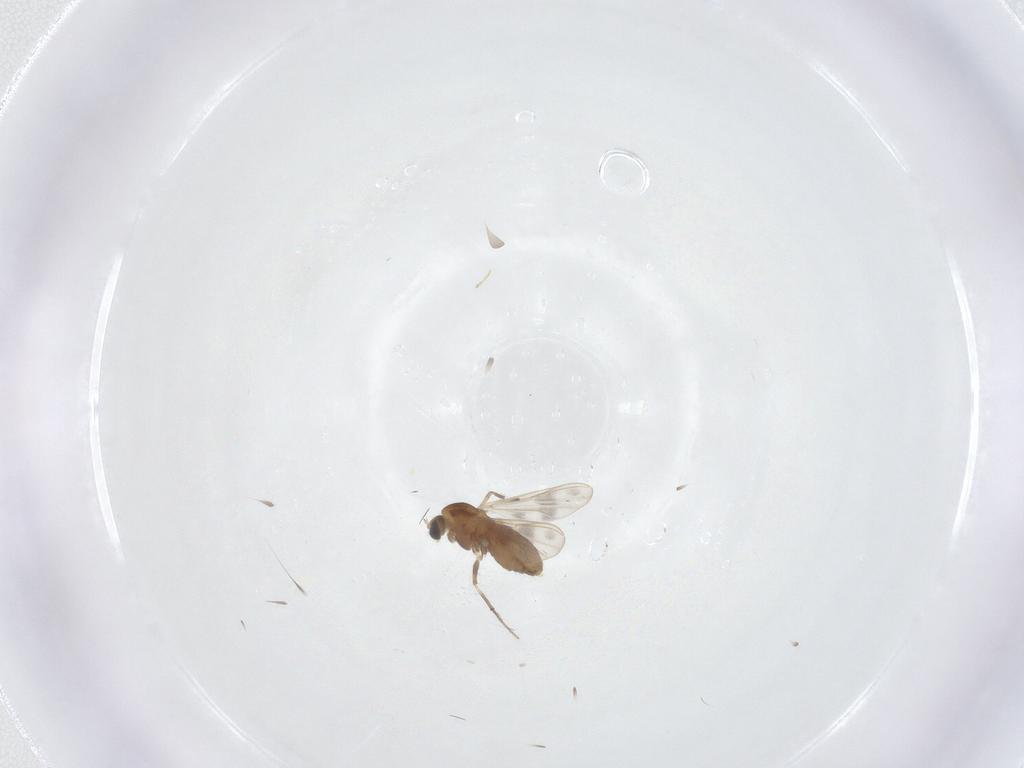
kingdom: Animalia
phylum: Arthropoda
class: Insecta
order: Diptera
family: Chironomidae
